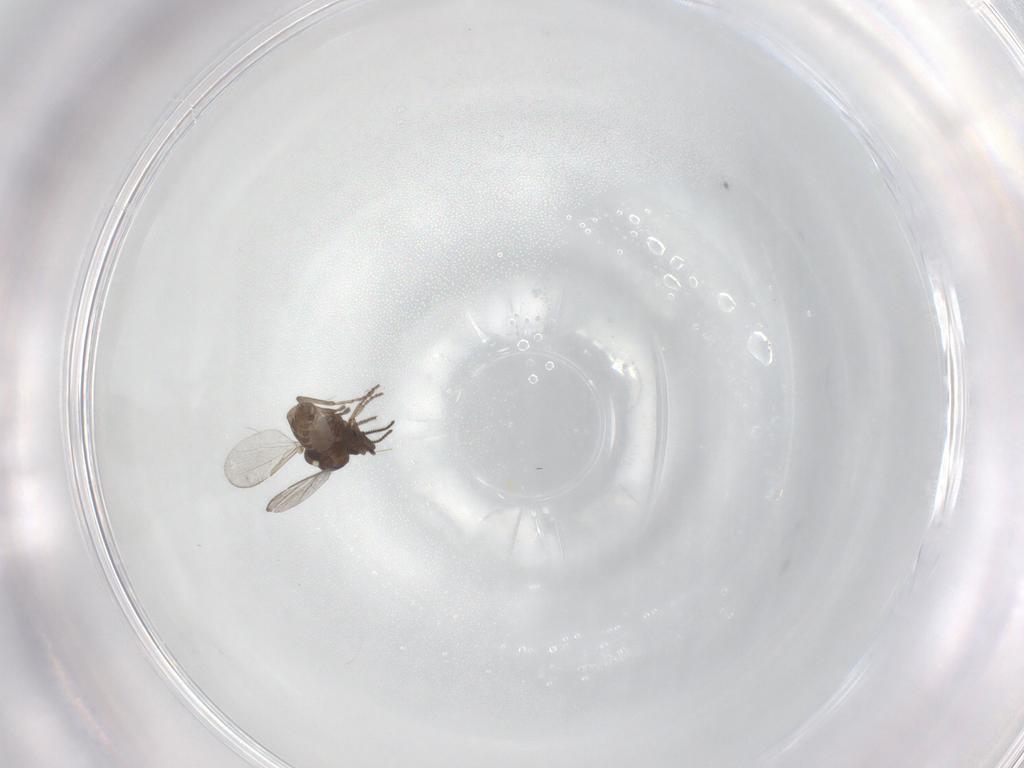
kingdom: Animalia
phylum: Arthropoda
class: Insecta
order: Diptera
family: Ceratopogonidae
